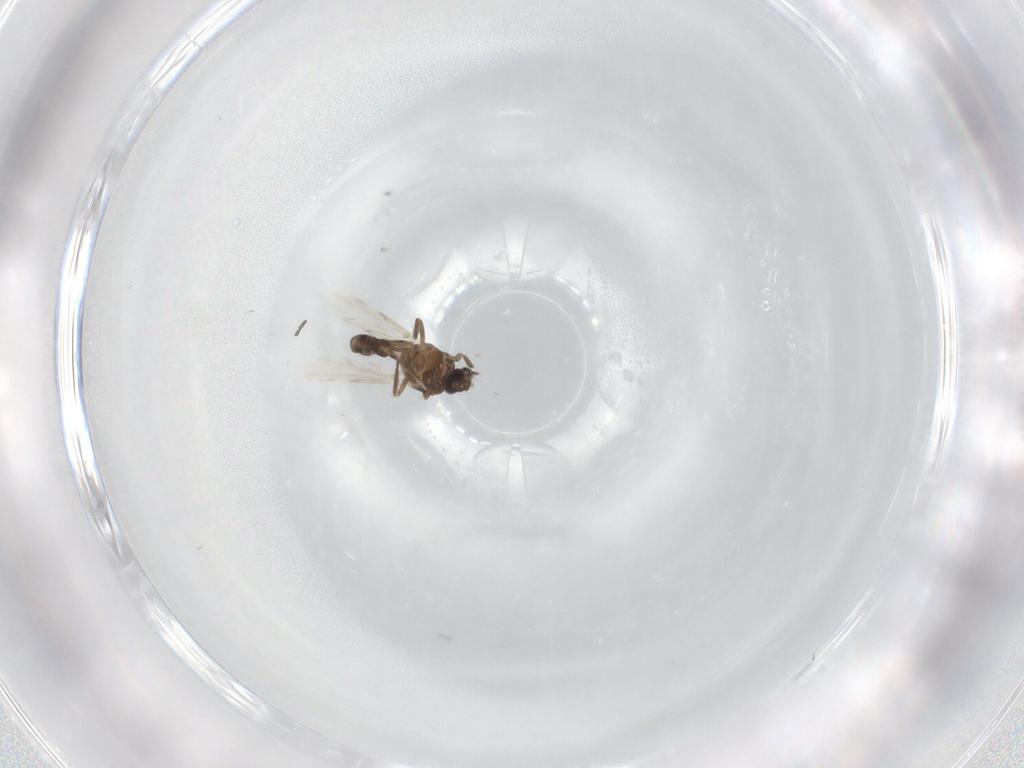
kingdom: Animalia
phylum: Arthropoda
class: Insecta
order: Diptera
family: Ceratopogonidae
